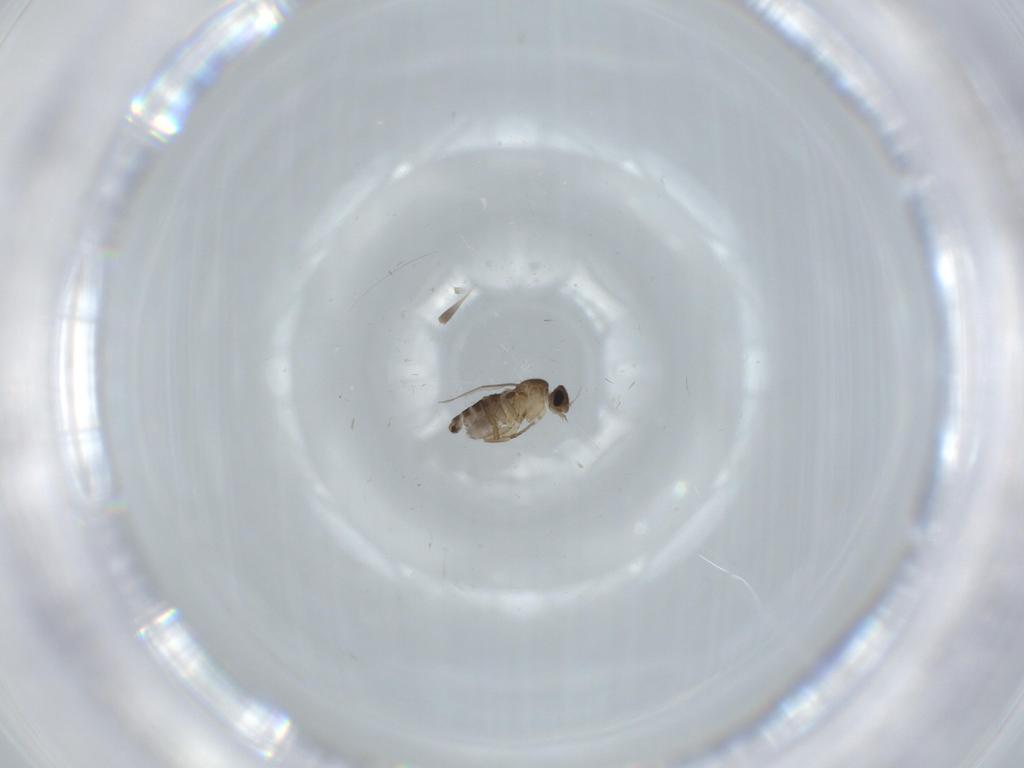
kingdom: Animalia
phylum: Arthropoda
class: Insecta
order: Diptera
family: Phoridae
